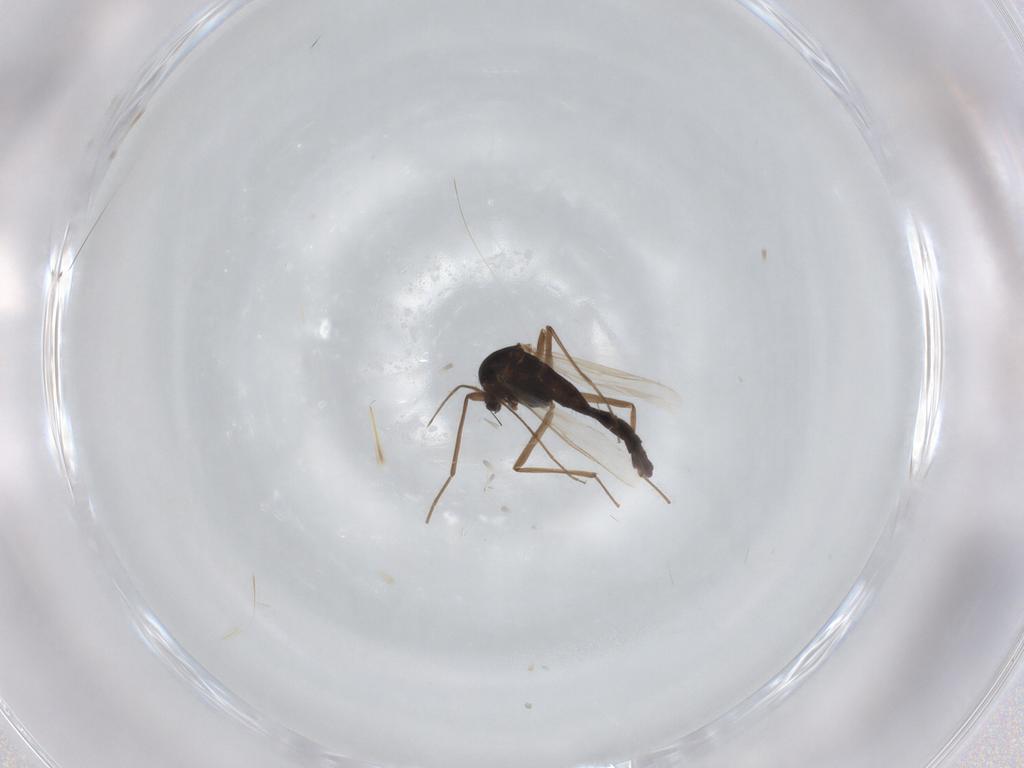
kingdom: Animalia
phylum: Arthropoda
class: Insecta
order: Diptera
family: Chironomidae
